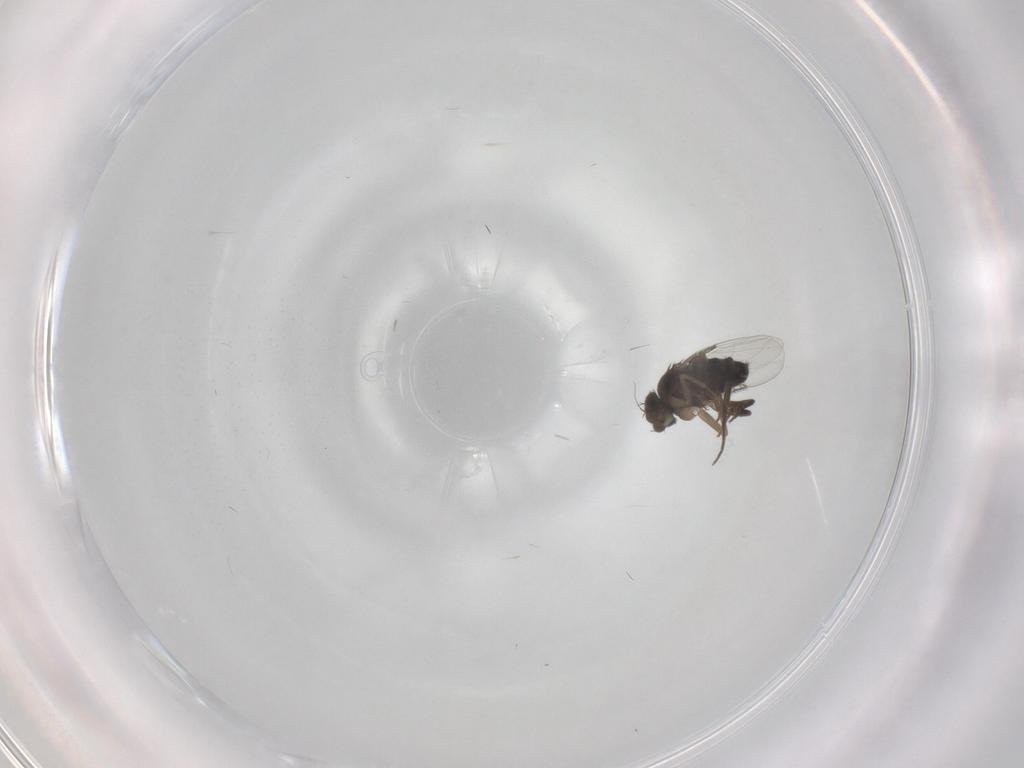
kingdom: Animalia
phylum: Arthropoda
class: Insecta
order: Diptera
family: Phoridae
